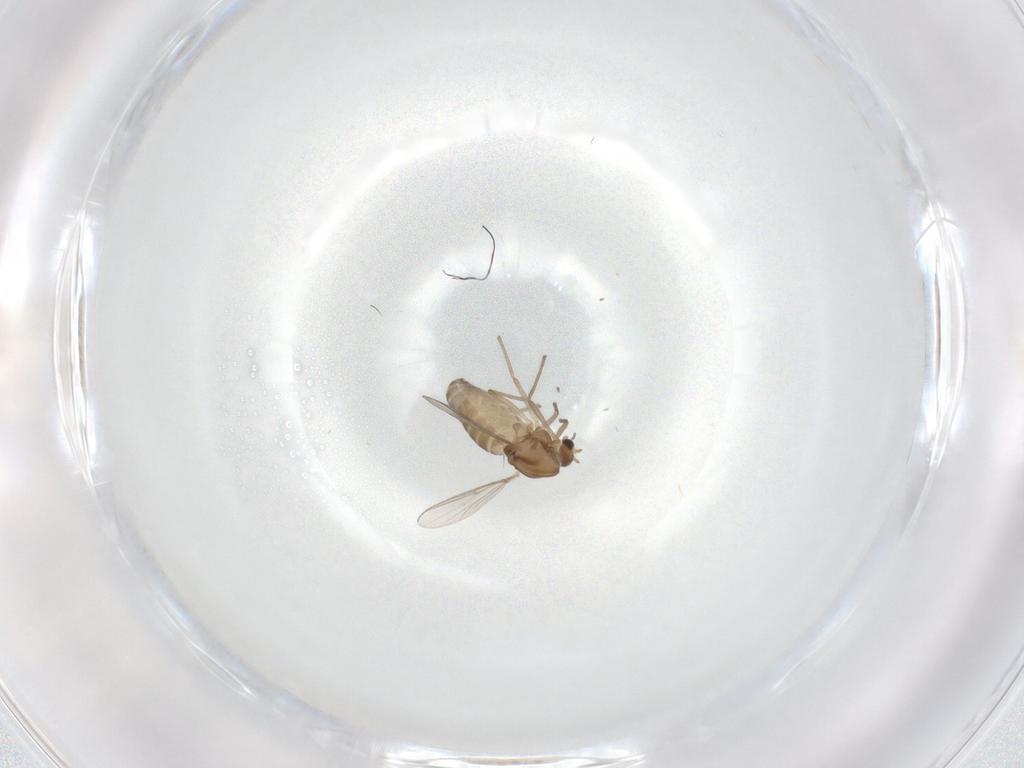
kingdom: Animalia
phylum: Arthropoda
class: Insecta
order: Diptera
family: Chironomidae
